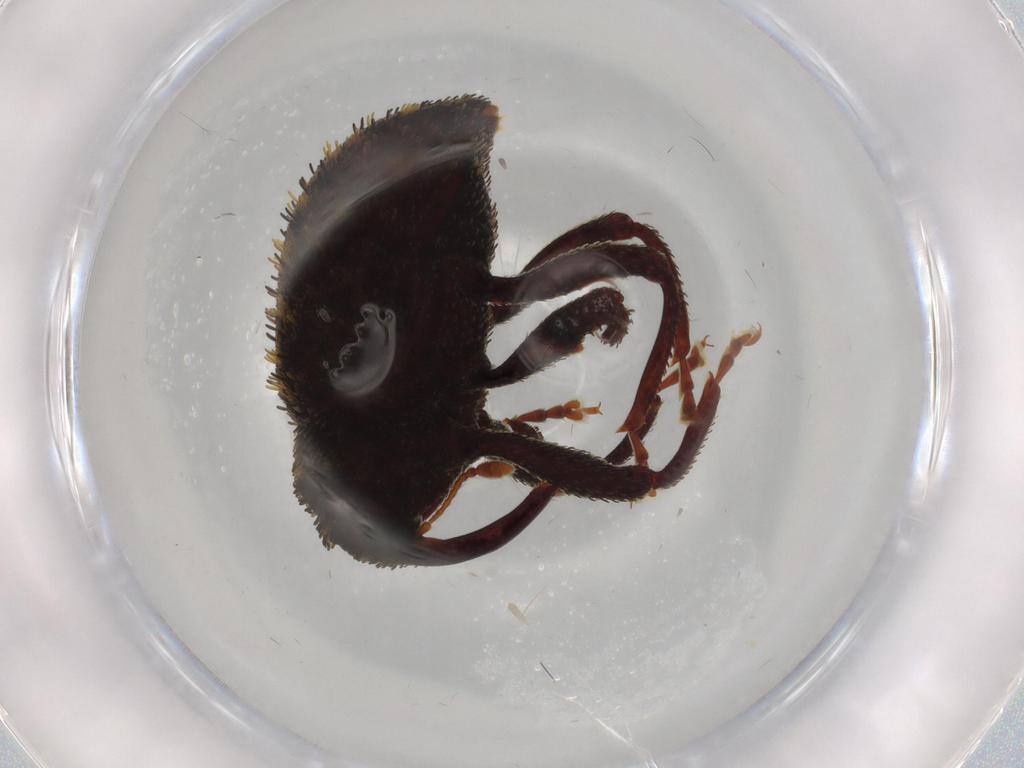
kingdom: Animalia
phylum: Arthropoda
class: Insecta
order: Coleoptera
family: Curculionidae
